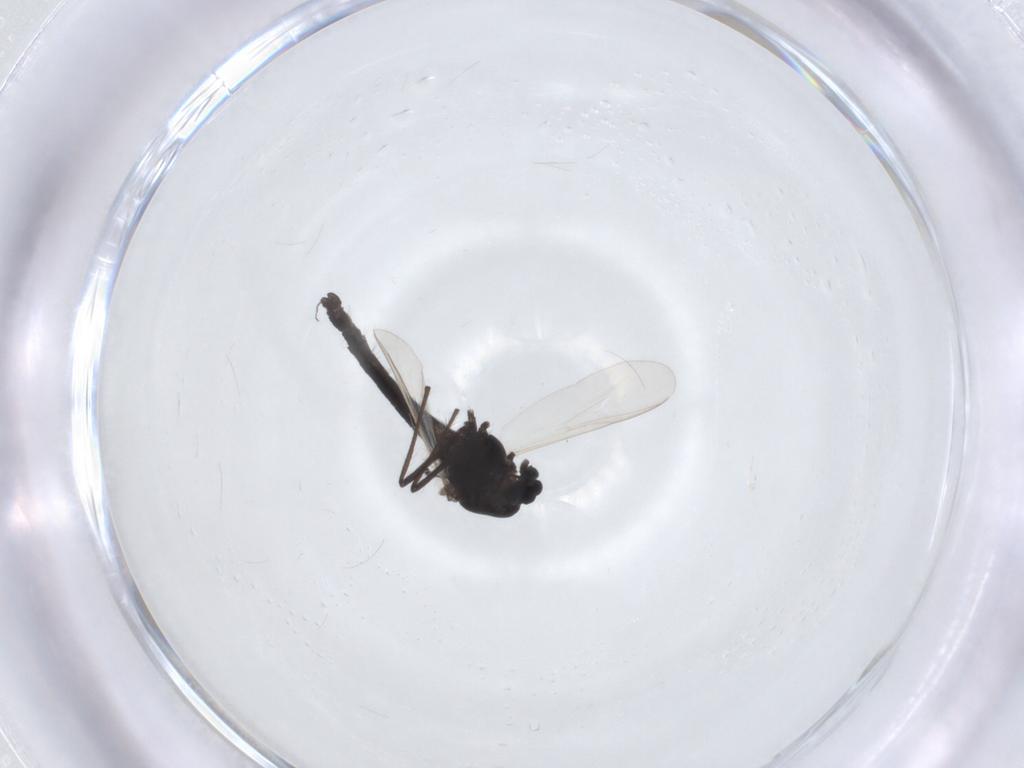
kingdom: Animalia
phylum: Arthropoda
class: Insecta
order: Diptera
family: Chironomidae
